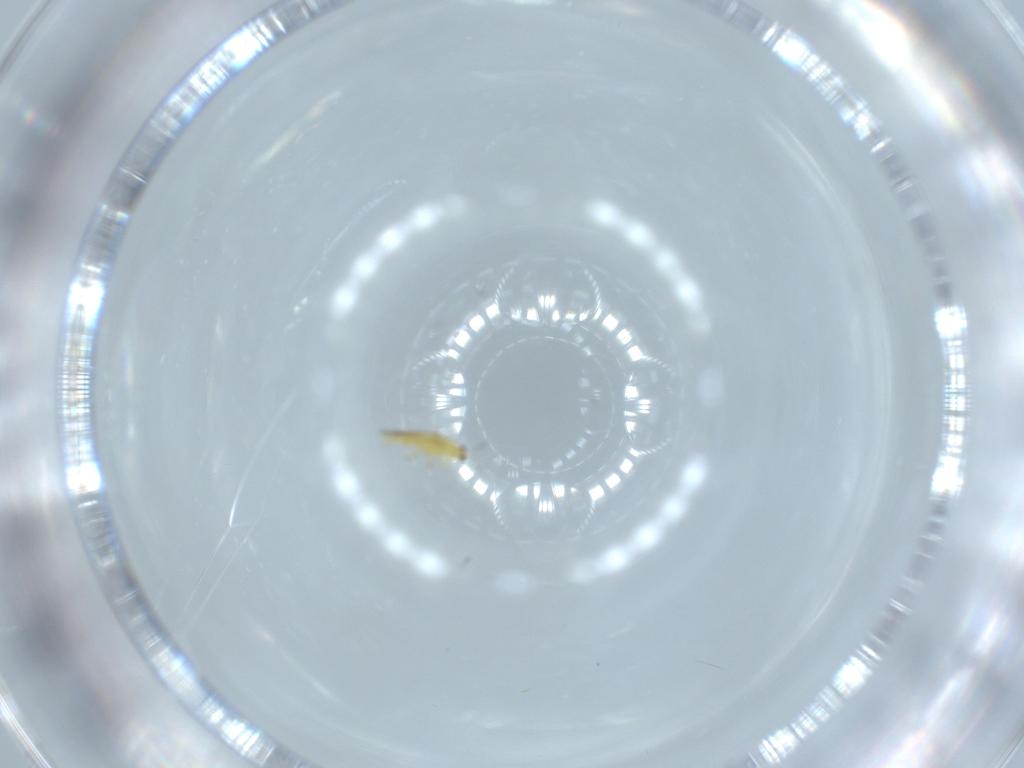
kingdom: Animalia
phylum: Arthropoda
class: Insecta
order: Thysanoptera
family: Thripidae
